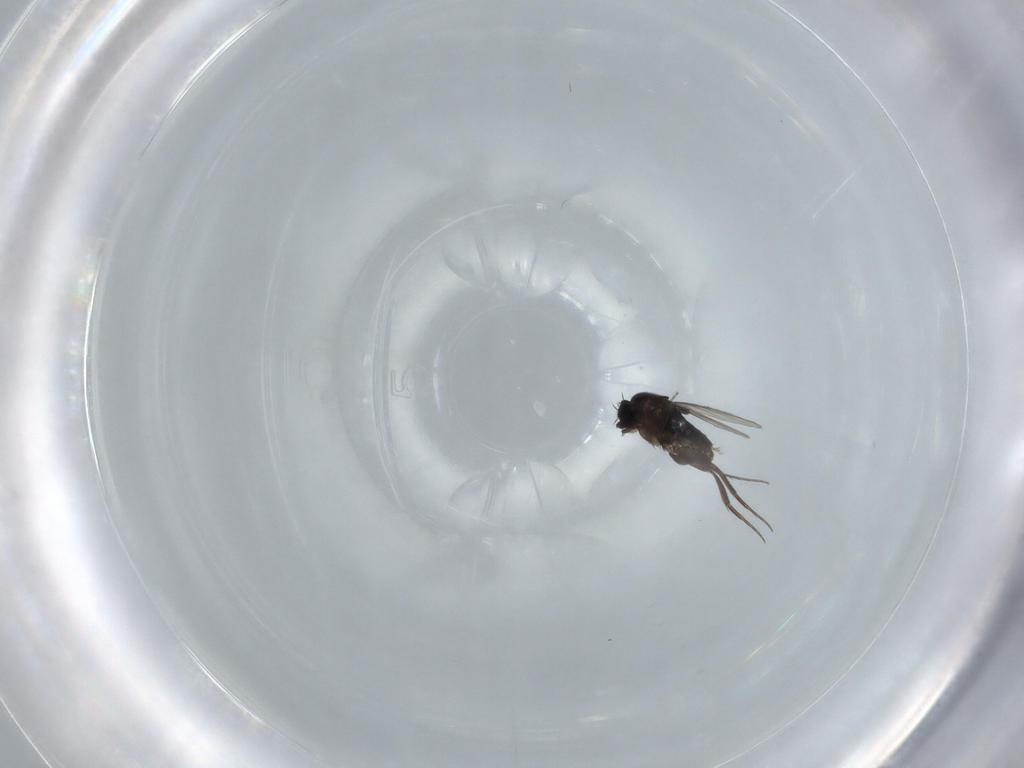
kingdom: Animalia
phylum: Arthropoda
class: Insecta
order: Diptera
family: Phoridae
